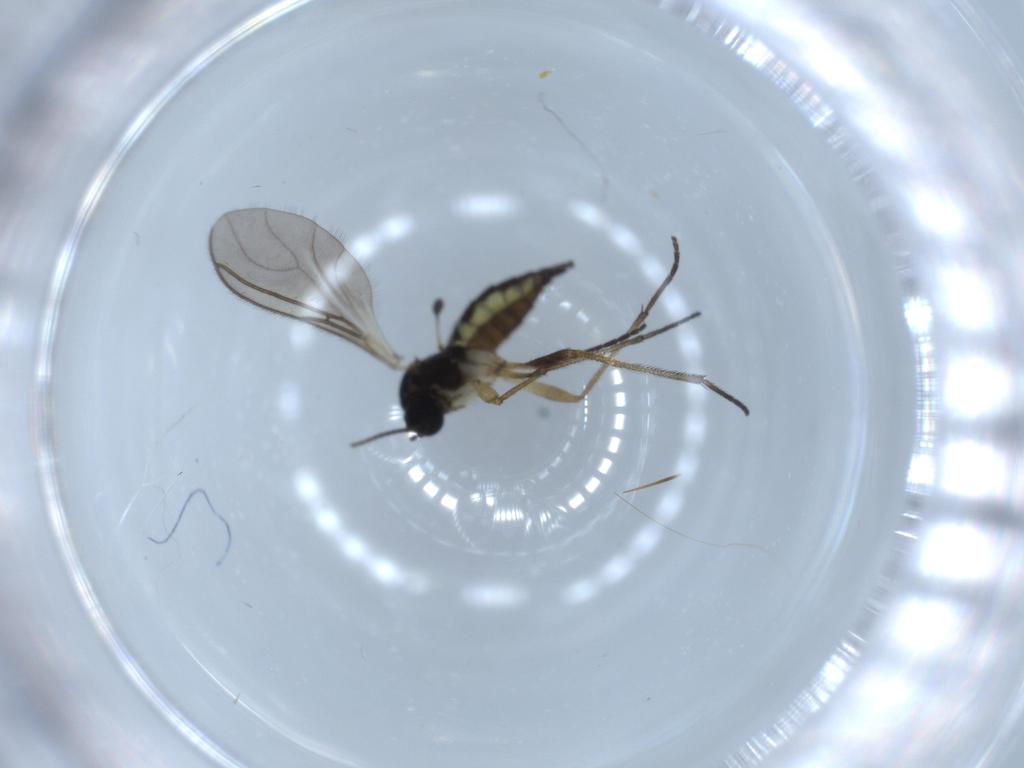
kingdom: Animalia
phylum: Arthropoda
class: Insecta
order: Diptera
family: Sciaridae
